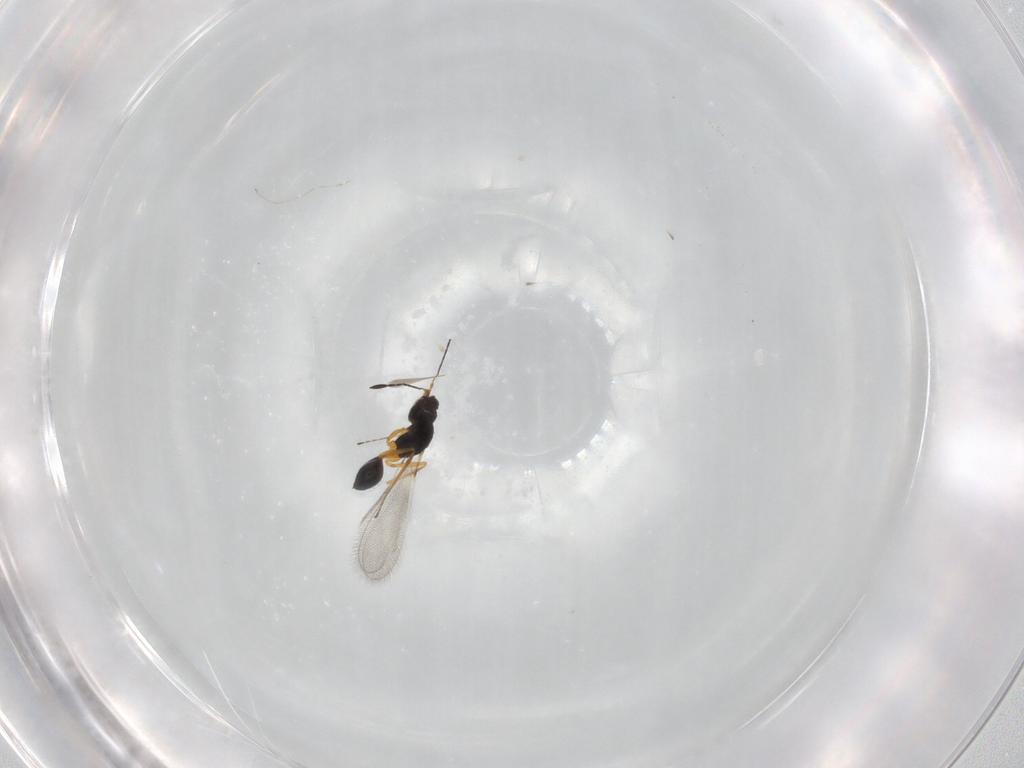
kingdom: Animalia
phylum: Arthropoda
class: Insecta
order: Hymenoptera
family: Mymaridae
